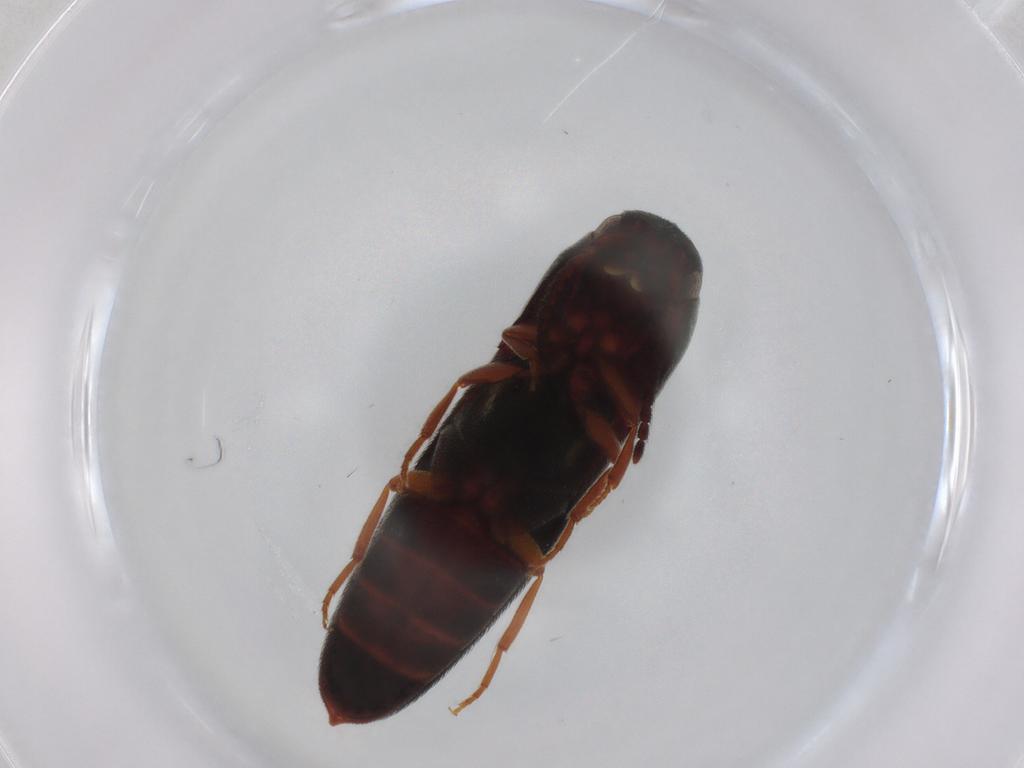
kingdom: Animalia
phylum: Arthropoda
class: Insecta
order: Coleoptera
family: Eucnemidae
